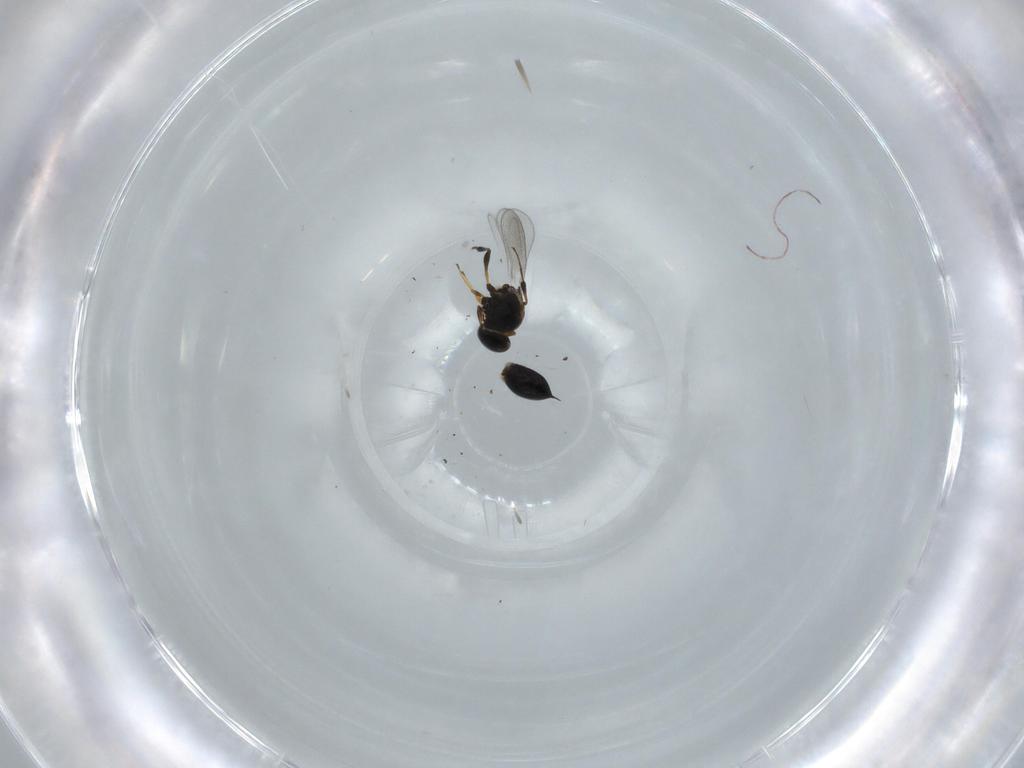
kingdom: Animalia
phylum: Arthropoda
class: Insecta
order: Hymenoptera
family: Platygastridae
